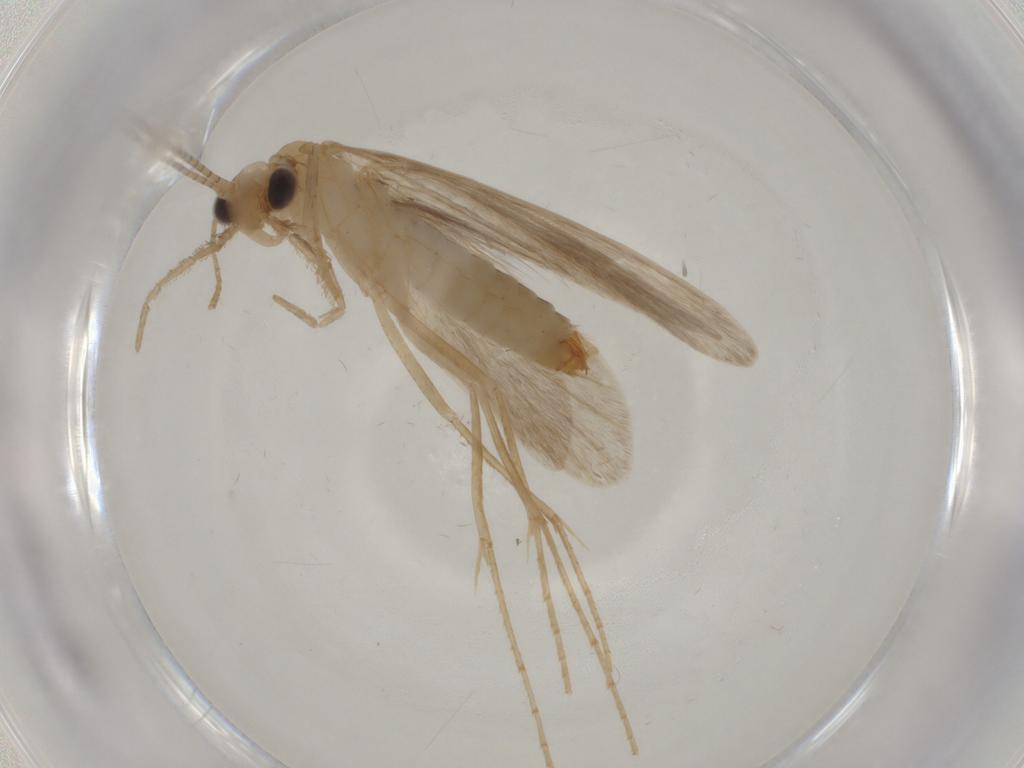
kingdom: Animalia
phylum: Arthropoda
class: Insecta
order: Trichoptera
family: Leptoceridae
